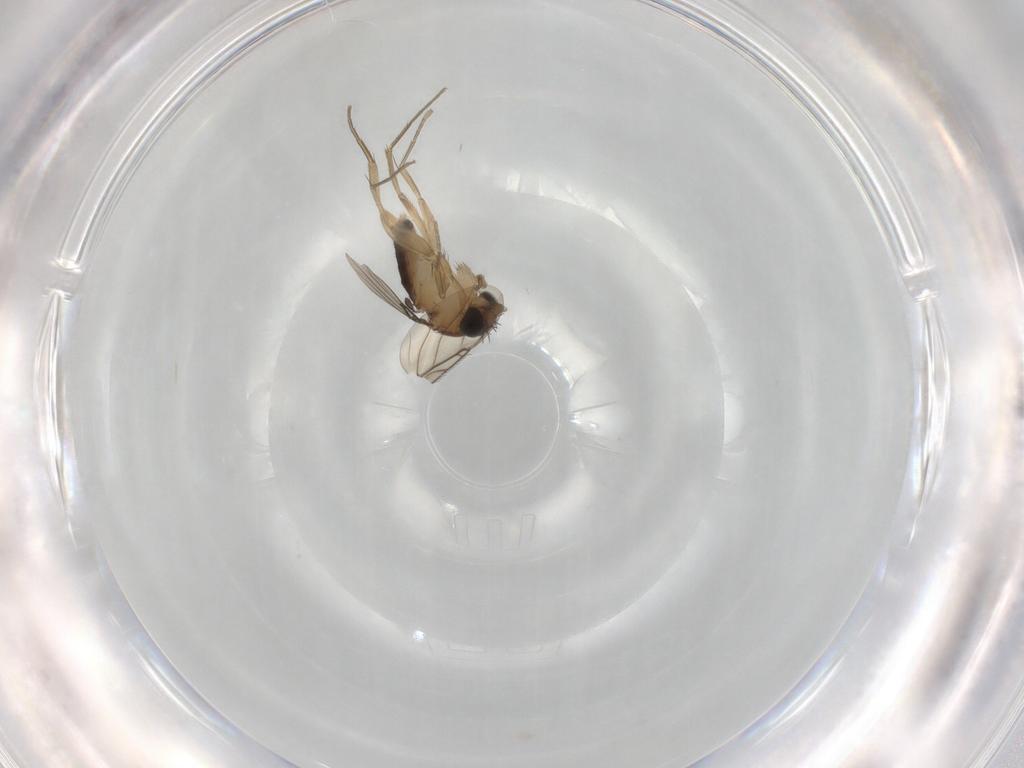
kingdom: Animalia
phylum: Arthropoda
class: Insecta
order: Diptera
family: Phoridae
